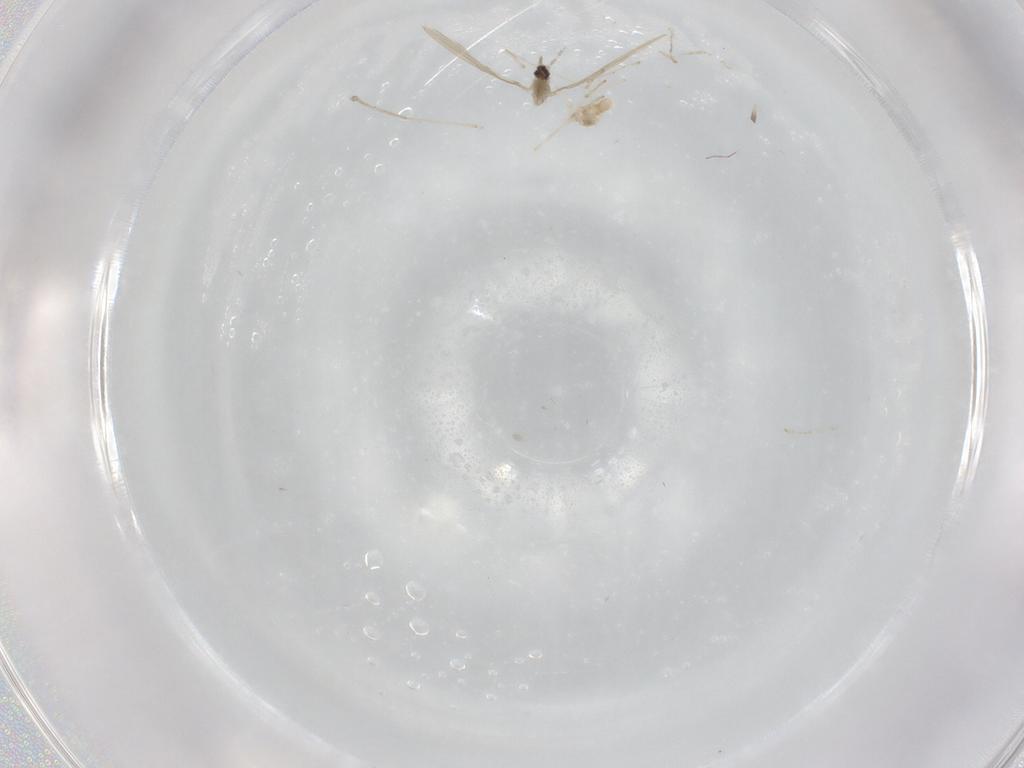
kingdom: Animalia
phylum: Arthropoda
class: Insecta
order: Diptera
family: Cecidomyiidae
